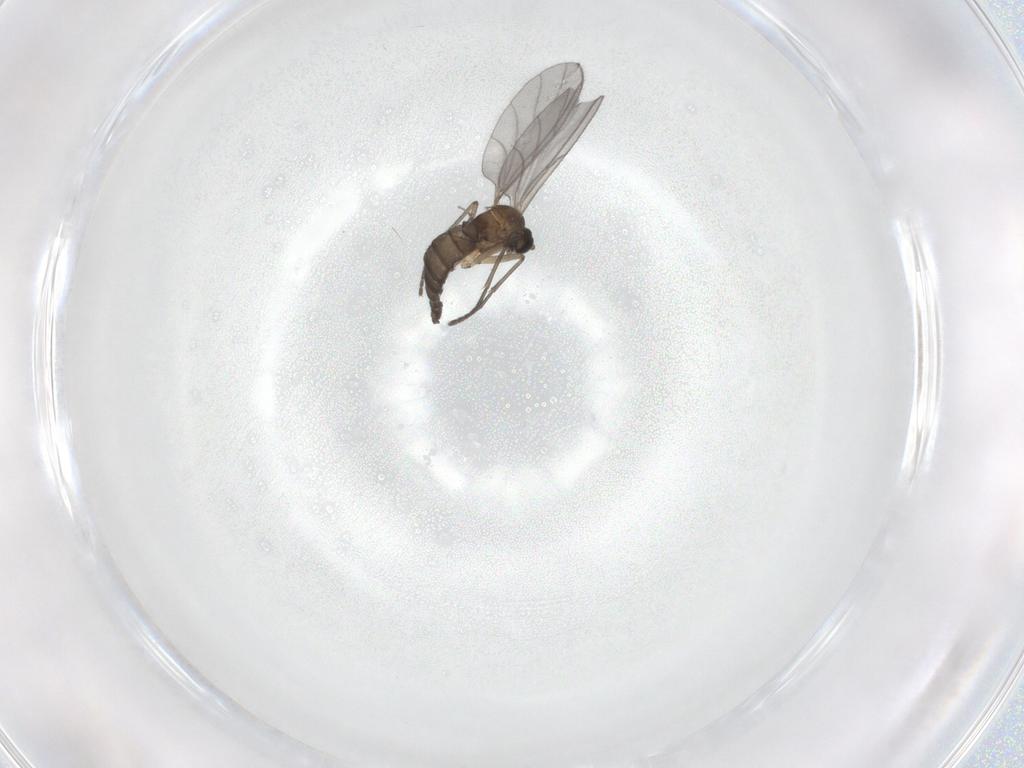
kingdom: Animalia
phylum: Arthropoda
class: Insecta
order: Diptera
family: Sciaridae
